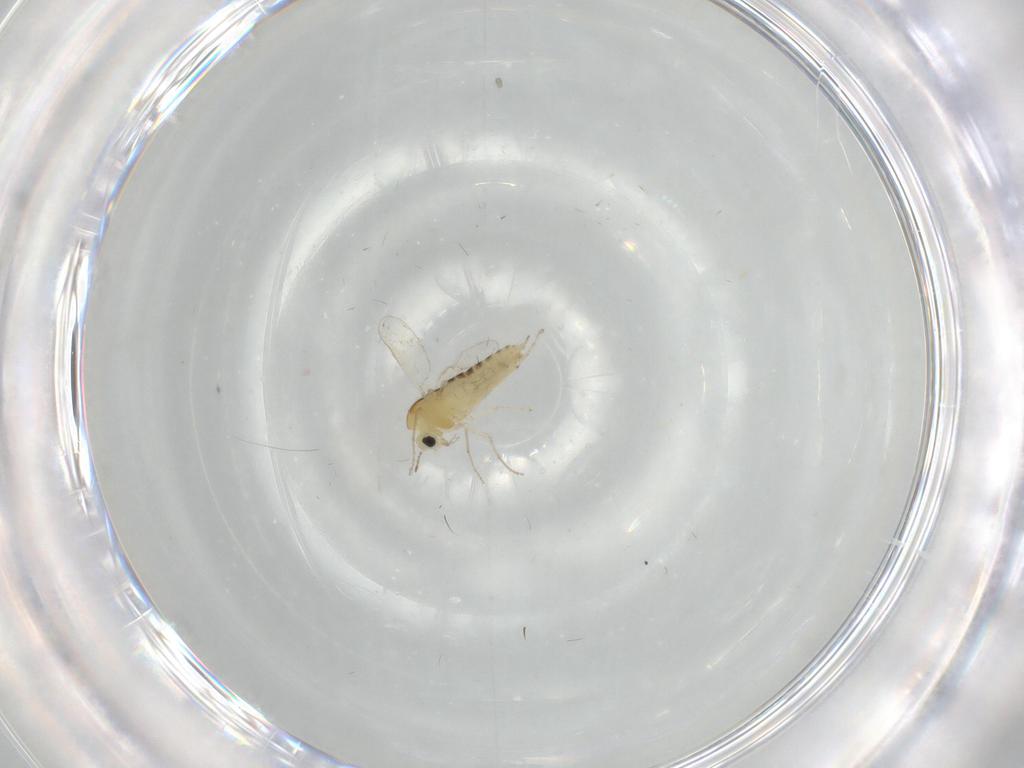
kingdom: Animalia
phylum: Arthropoda
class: Insecta
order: Diptera
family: Chironomidae
